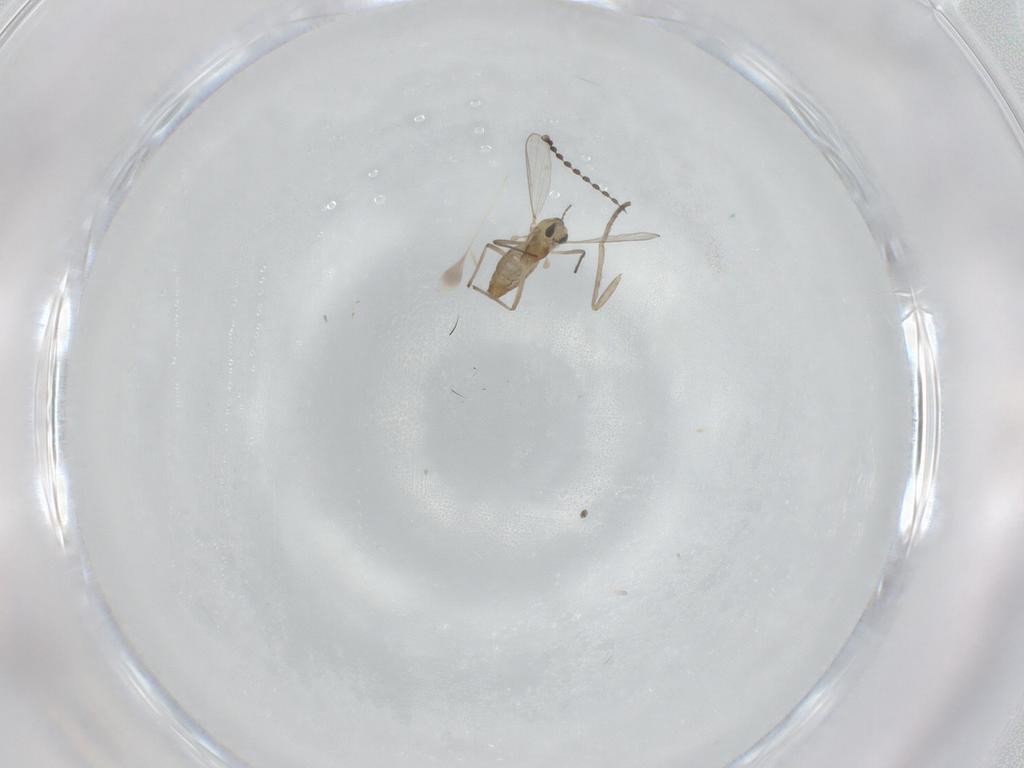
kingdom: Animalia
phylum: Arthropoda
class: Insecta
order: Diptera
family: Chironomidae
